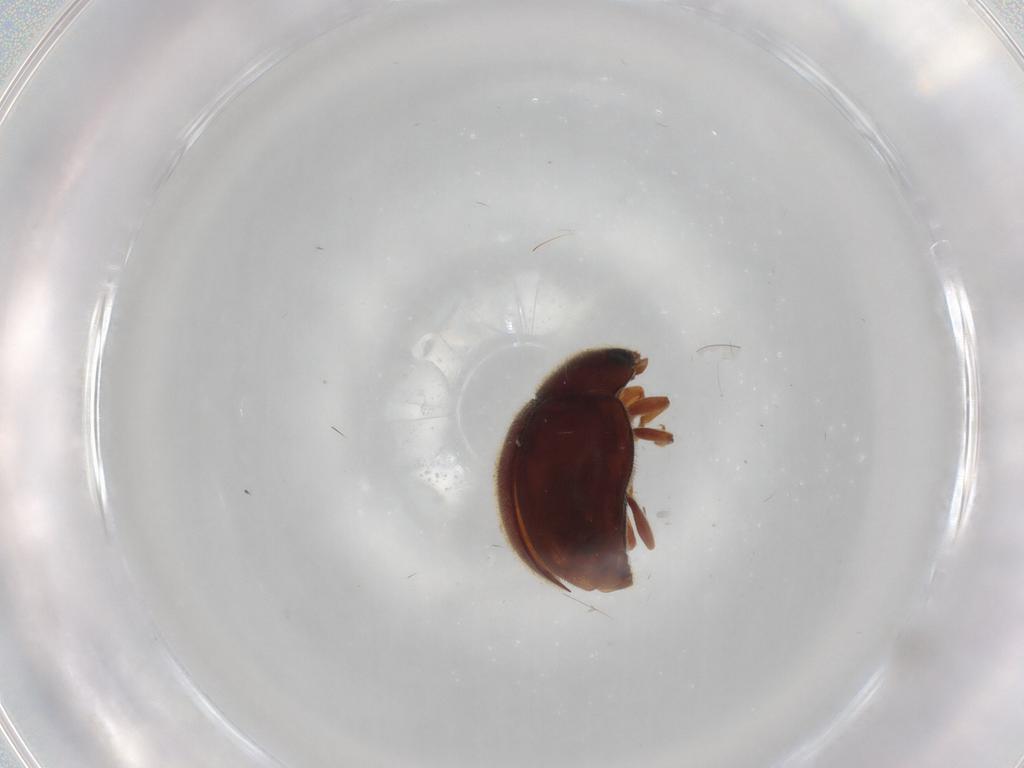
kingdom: Animalia
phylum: Arthropoda
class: Insecta
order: Coleoptera
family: Coccinellidae
